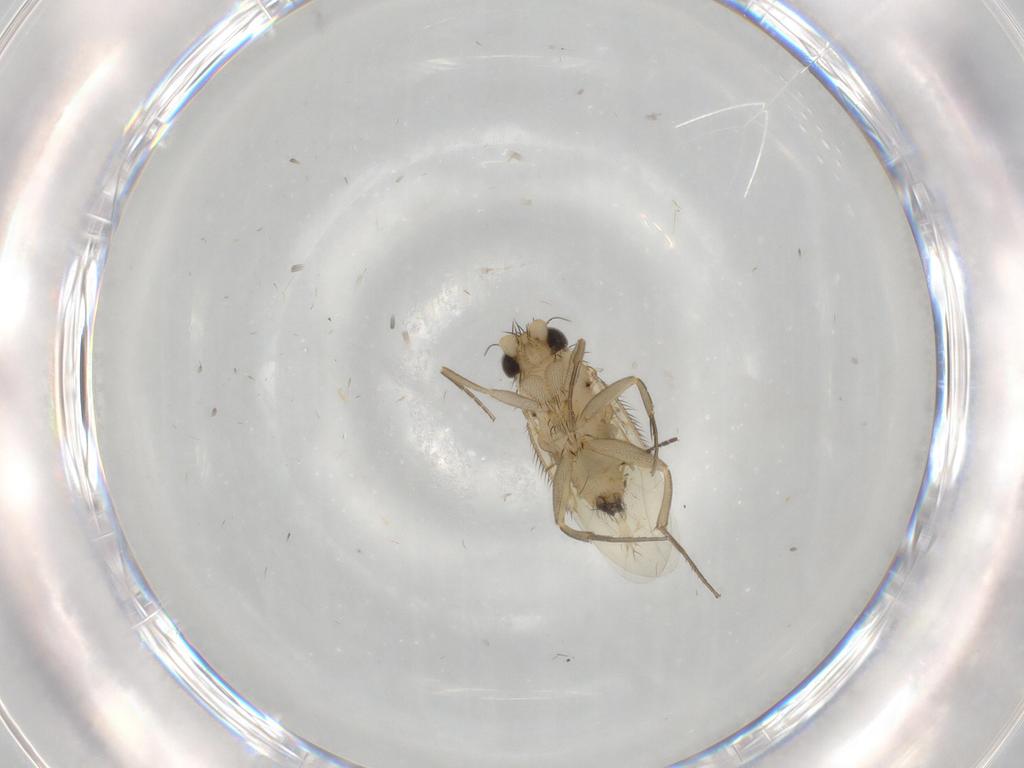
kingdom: Animalia
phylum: Arthropoda
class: Insecta
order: Diptera
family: Phoridae
